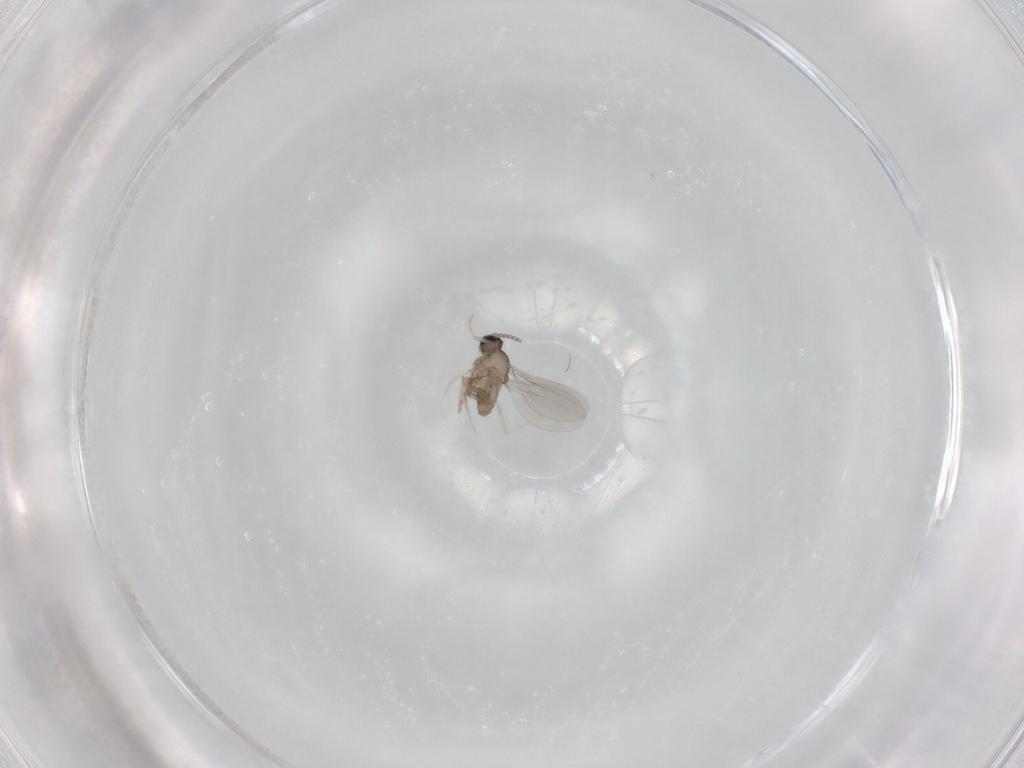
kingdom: Animalia
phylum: Arthropoda
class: Insecta
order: Diptera
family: Cecidomyiidae
